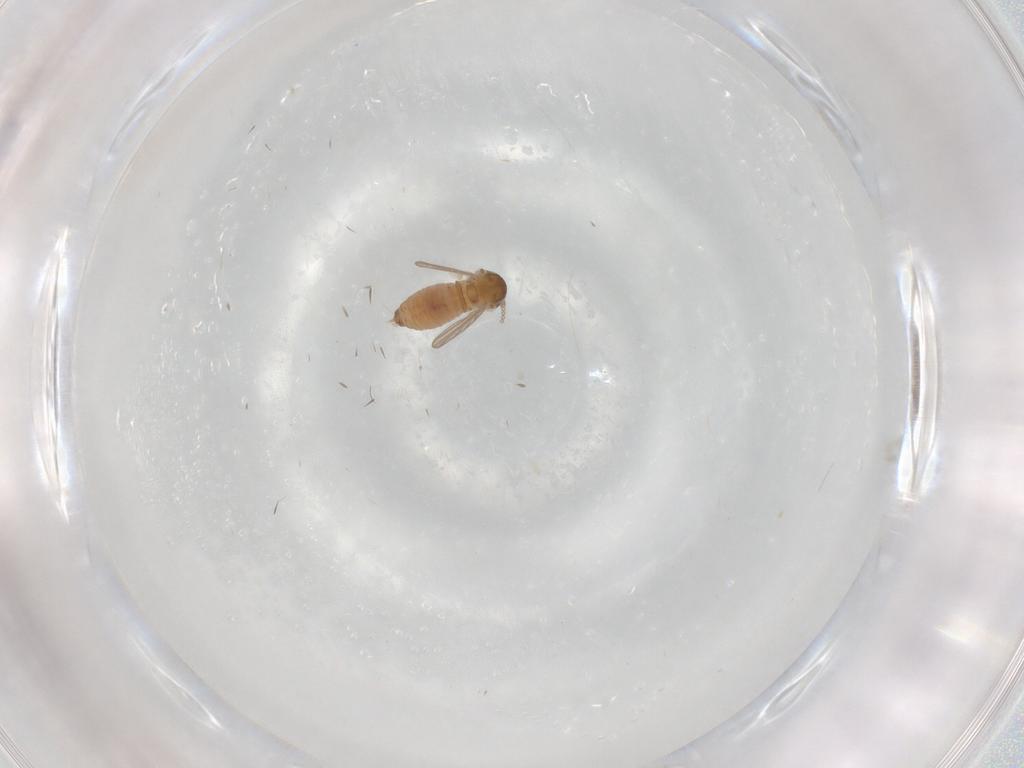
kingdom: Animalia
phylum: Arthropoda
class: Insecta
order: Diptera
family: Psychodidae
